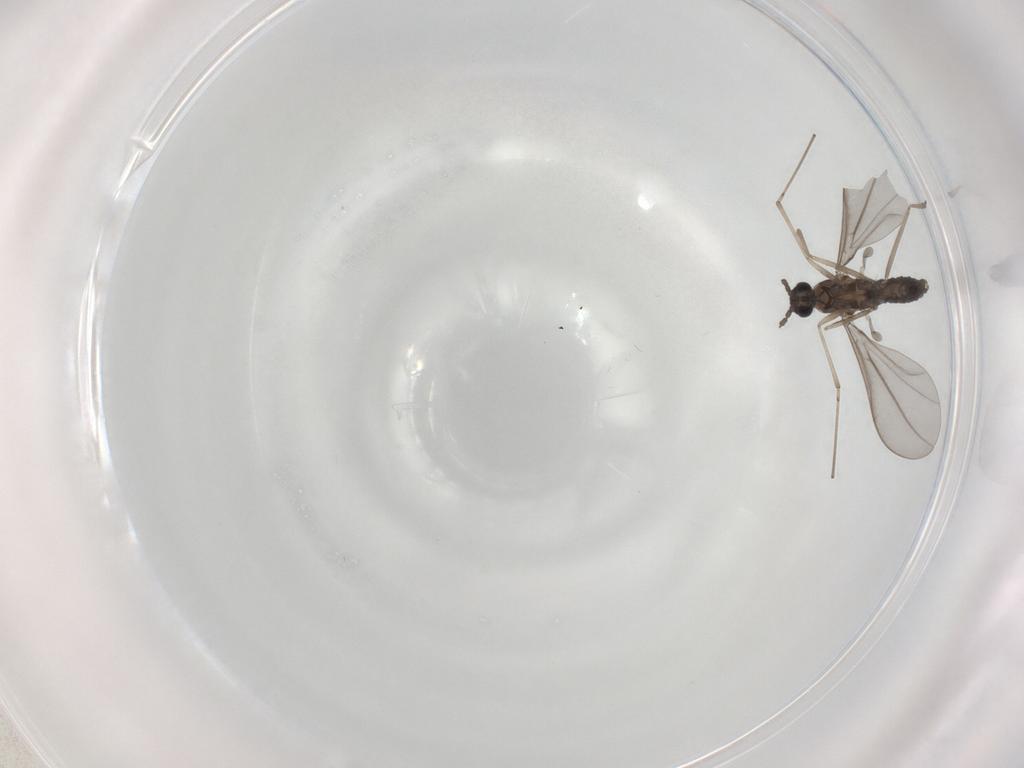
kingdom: Animalia
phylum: Arthropoda
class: Insecta
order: Diptera
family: Cecidomyiidae
